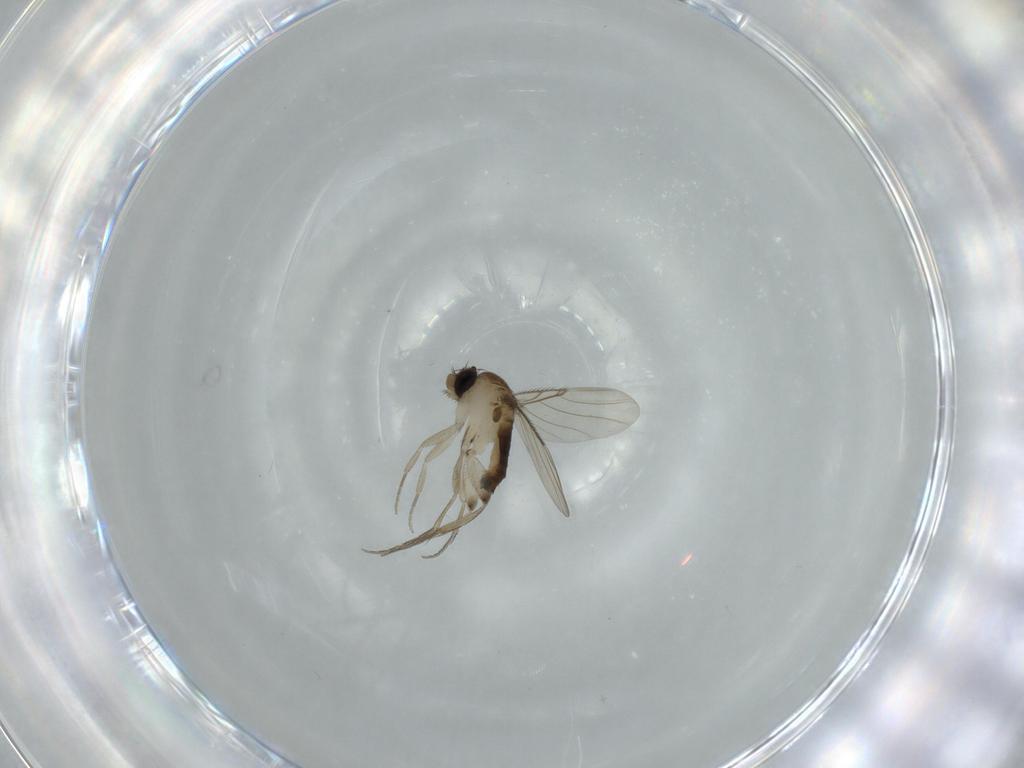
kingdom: Animalia
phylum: Arthropoda
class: Insecta
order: Diptera
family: Phoridae
